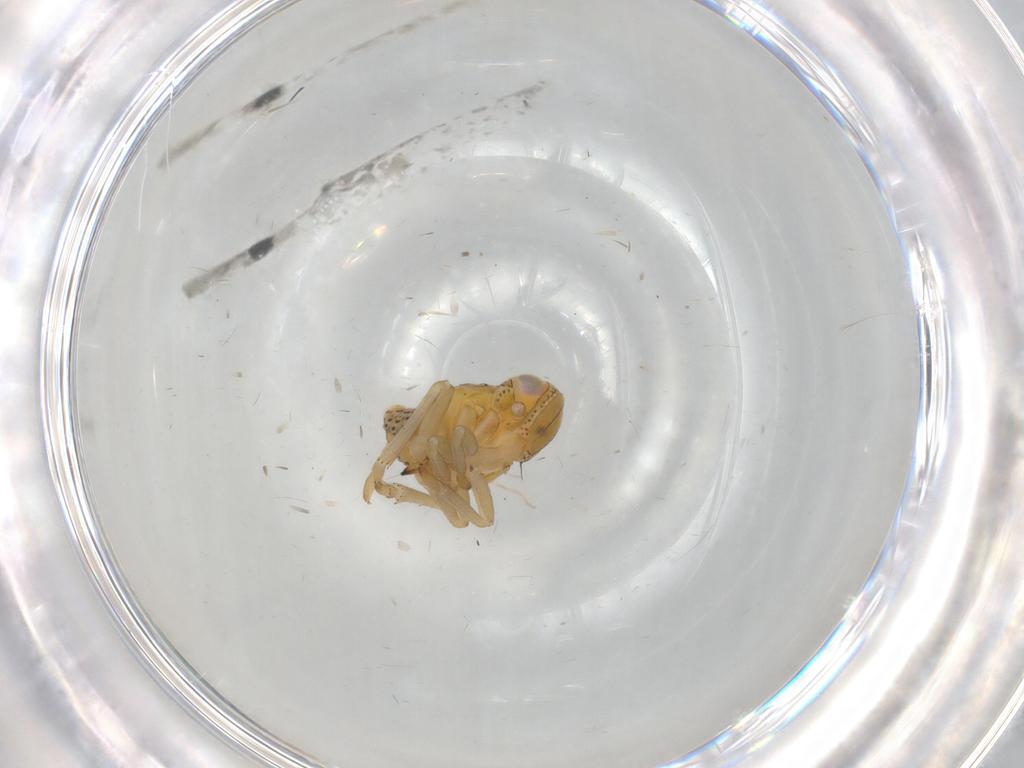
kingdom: Animalia
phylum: Arthropoda
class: Insecta
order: Hemiptera
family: Tropiduchidae
